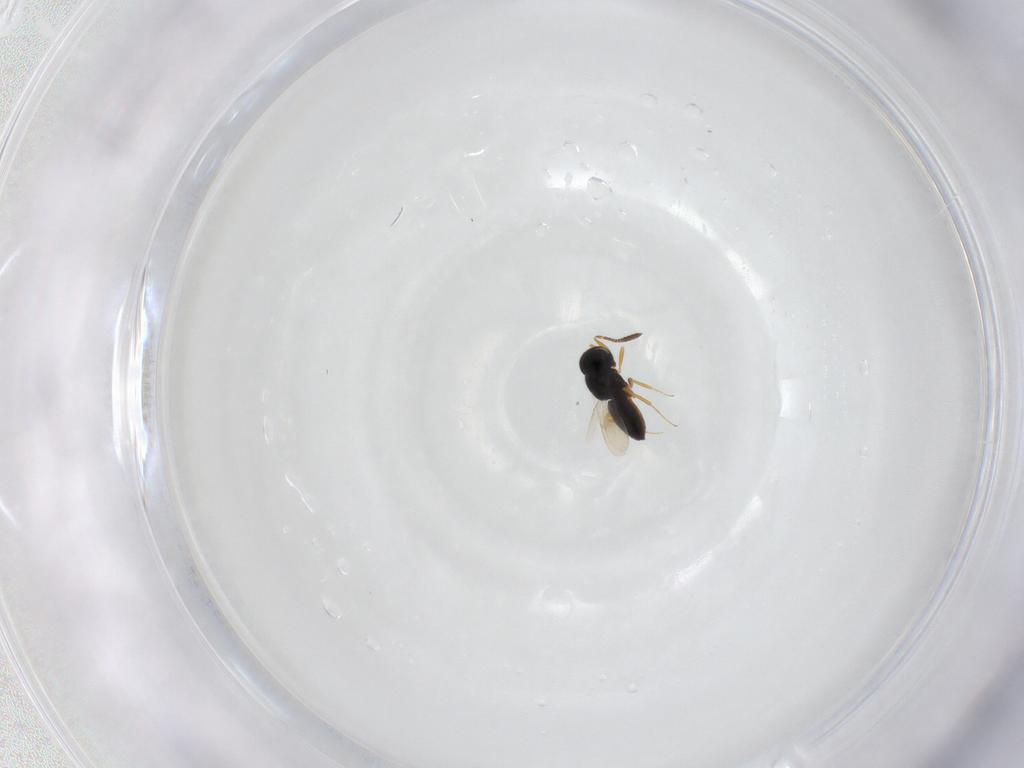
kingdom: Animalia
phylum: Arthropoda
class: Insecta
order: Hymenoptera
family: Scelionidae
